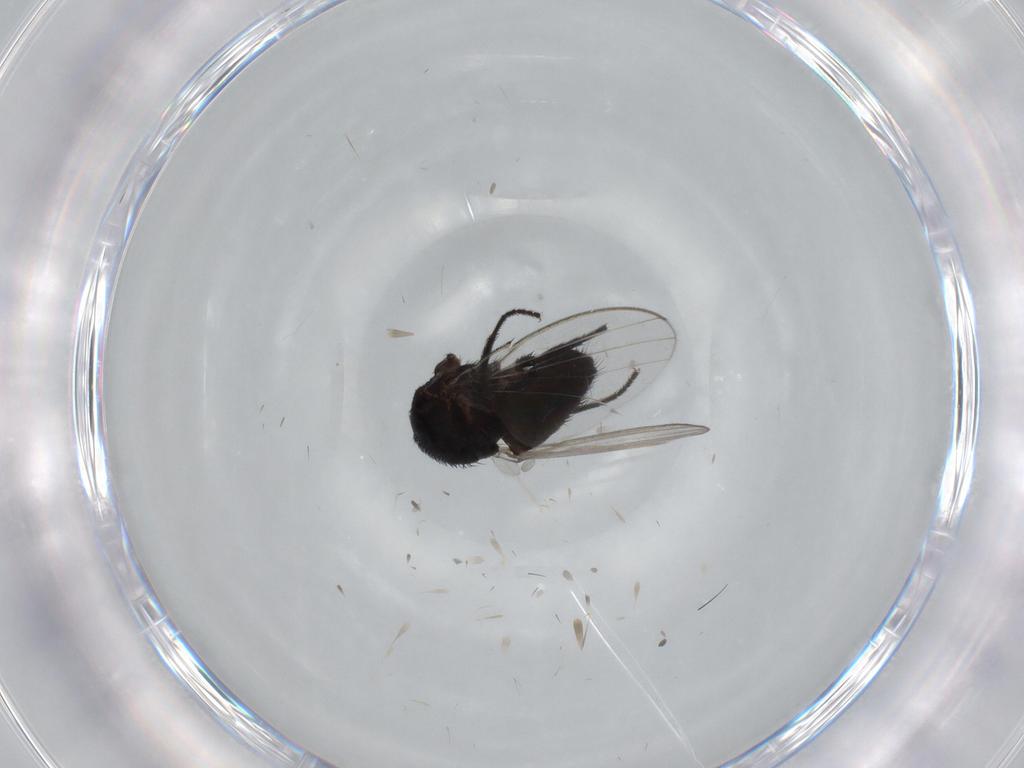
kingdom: Animalia
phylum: Arthropoda
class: Insecta
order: Diptera
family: Milichiidae
